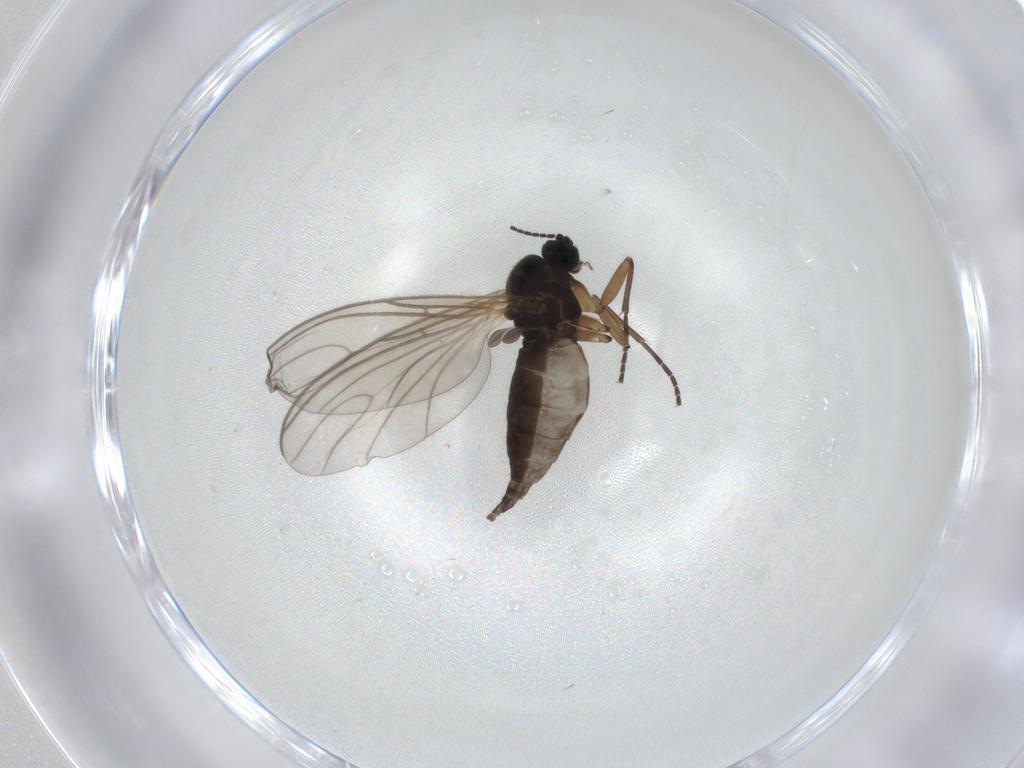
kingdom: Animalia
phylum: Arthropoda
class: Insecta
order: Diptera
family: Sciaridae
